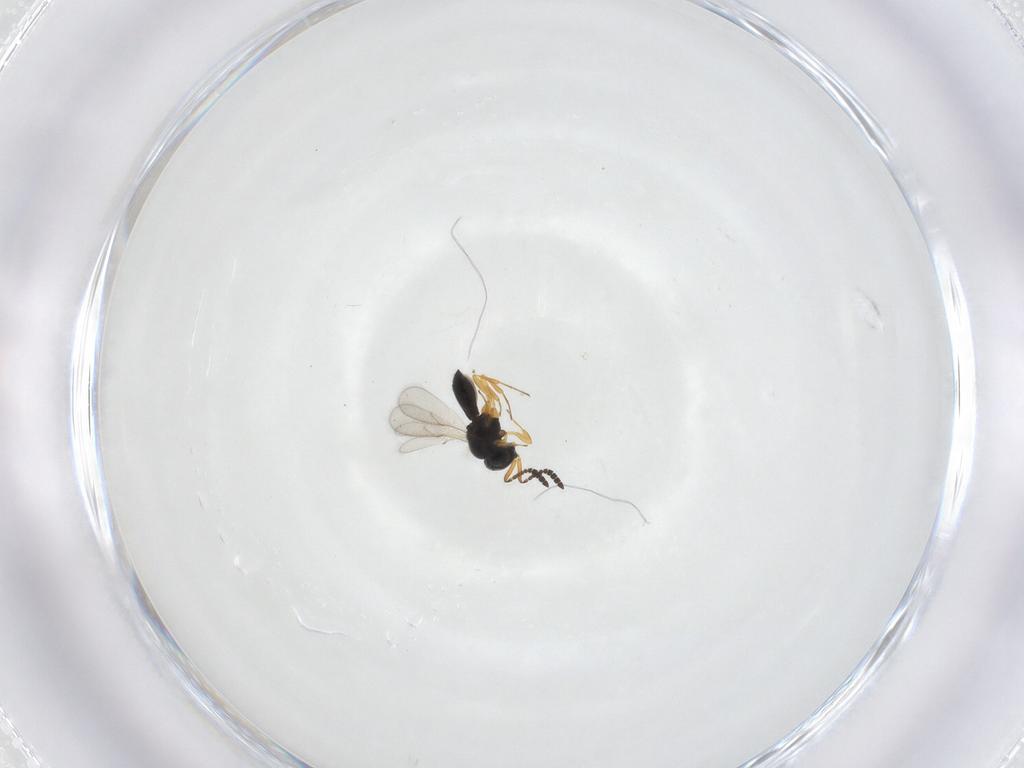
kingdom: Animalia
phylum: Arthropoda
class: Insecta
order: Hymenoptera
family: Scelionidae
